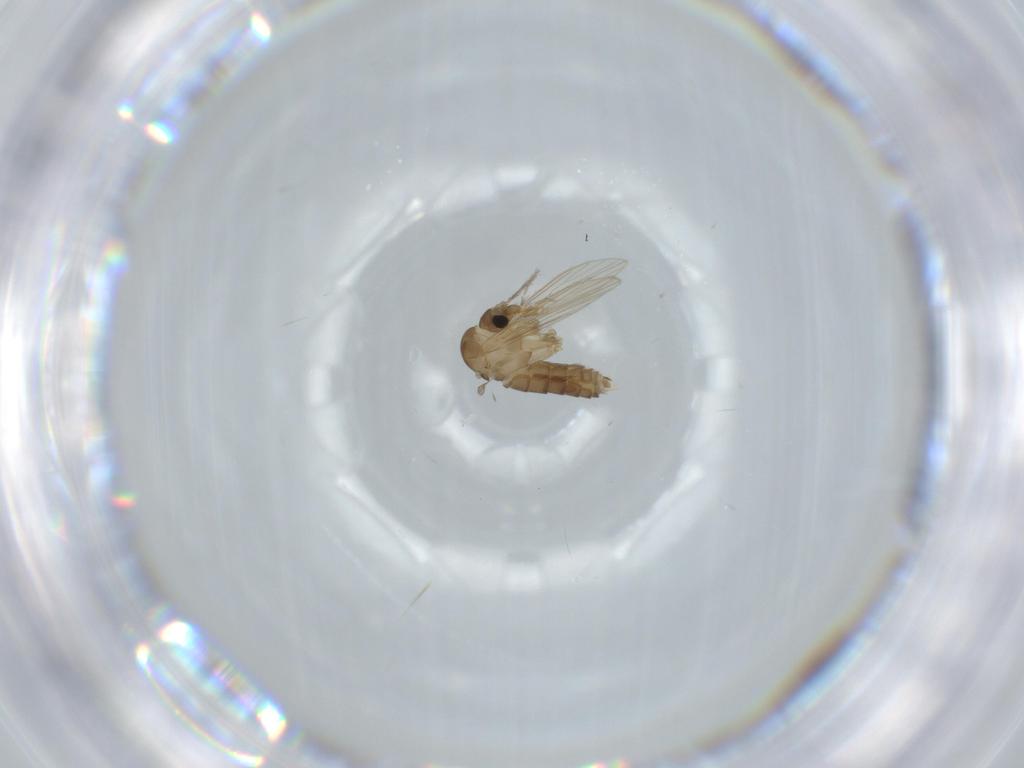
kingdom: Animalia
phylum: Arthropoda
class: Insecta
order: Diptera
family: Psychodidae
